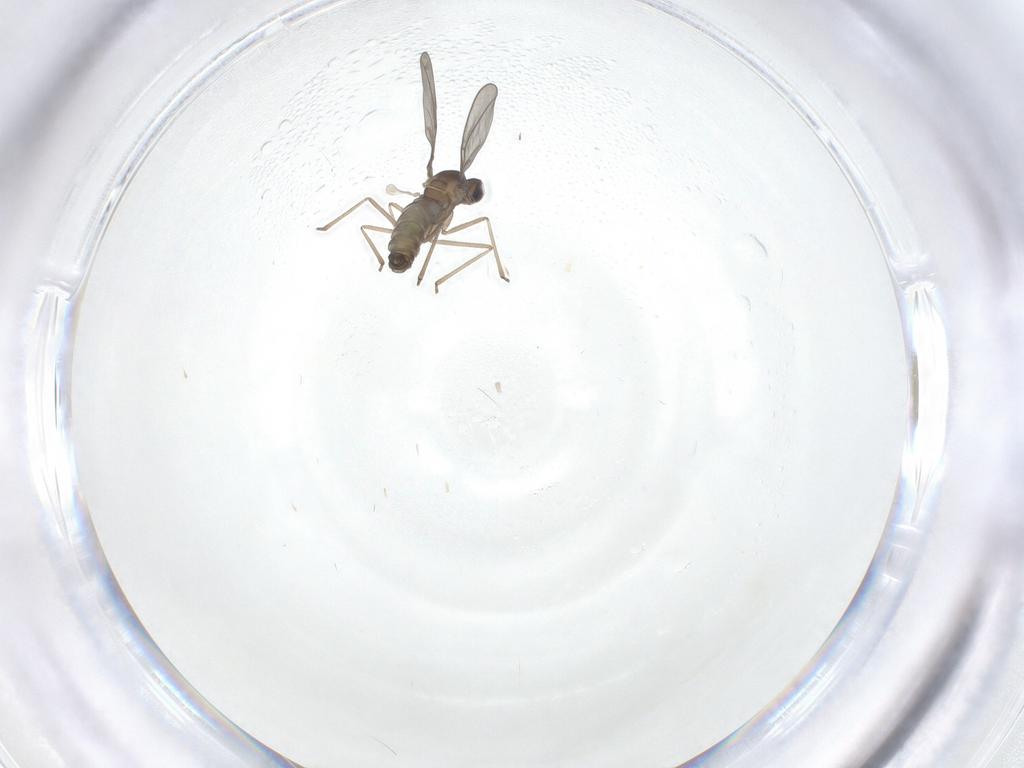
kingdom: Animalia
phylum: Arthropoda
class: Insecta
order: Diptera
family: Cecidomyiidae
